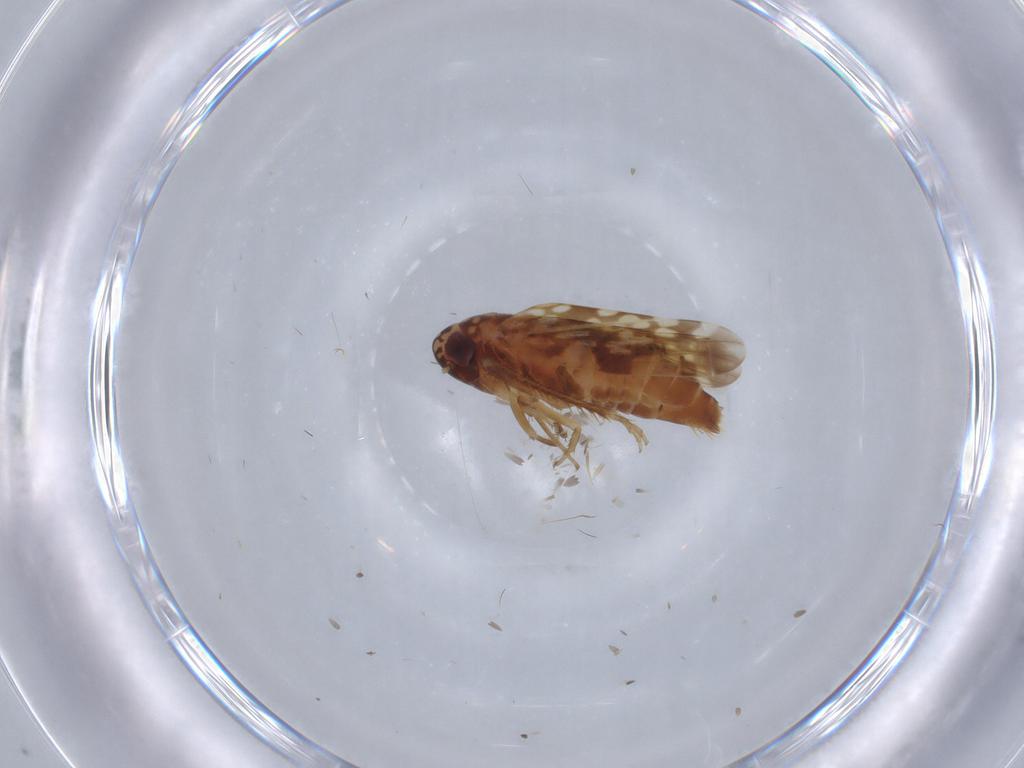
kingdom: Animalia
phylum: Arthropoda
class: Insecta
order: Hemiptera
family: Cicadellidae
